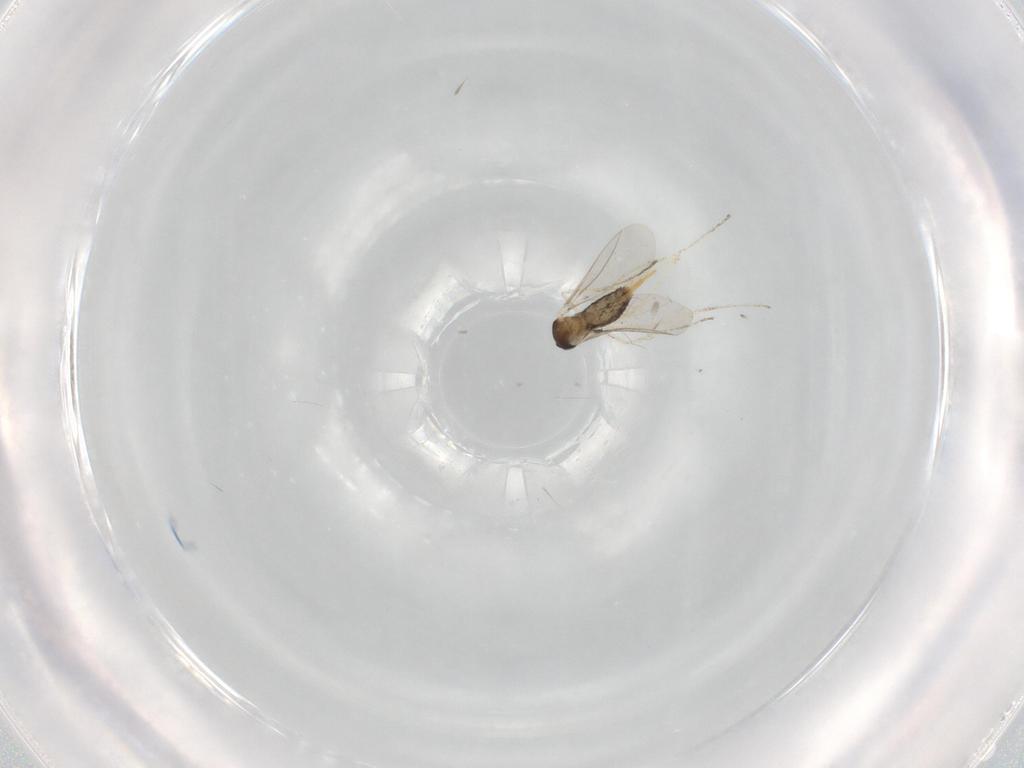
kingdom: Animalia
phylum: Arthropoda
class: Insecta
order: Diptera
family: Cecidomyiidae
